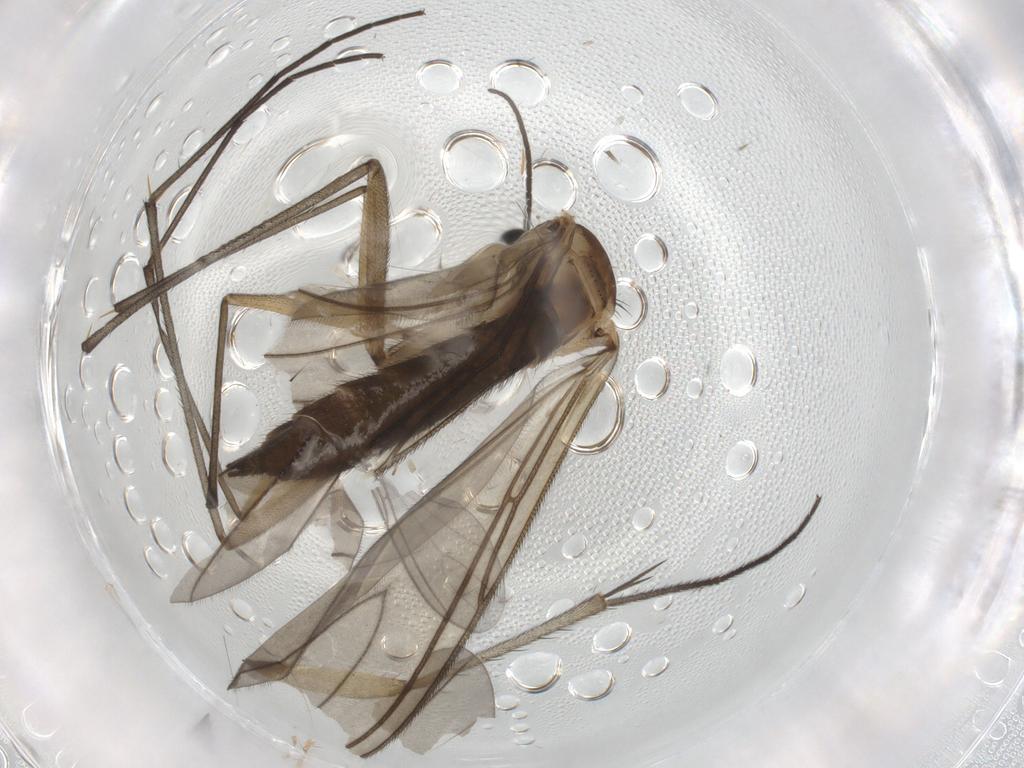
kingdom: Animalia
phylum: Arthropoda
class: Insecta
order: Diptera
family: Sciaridae
